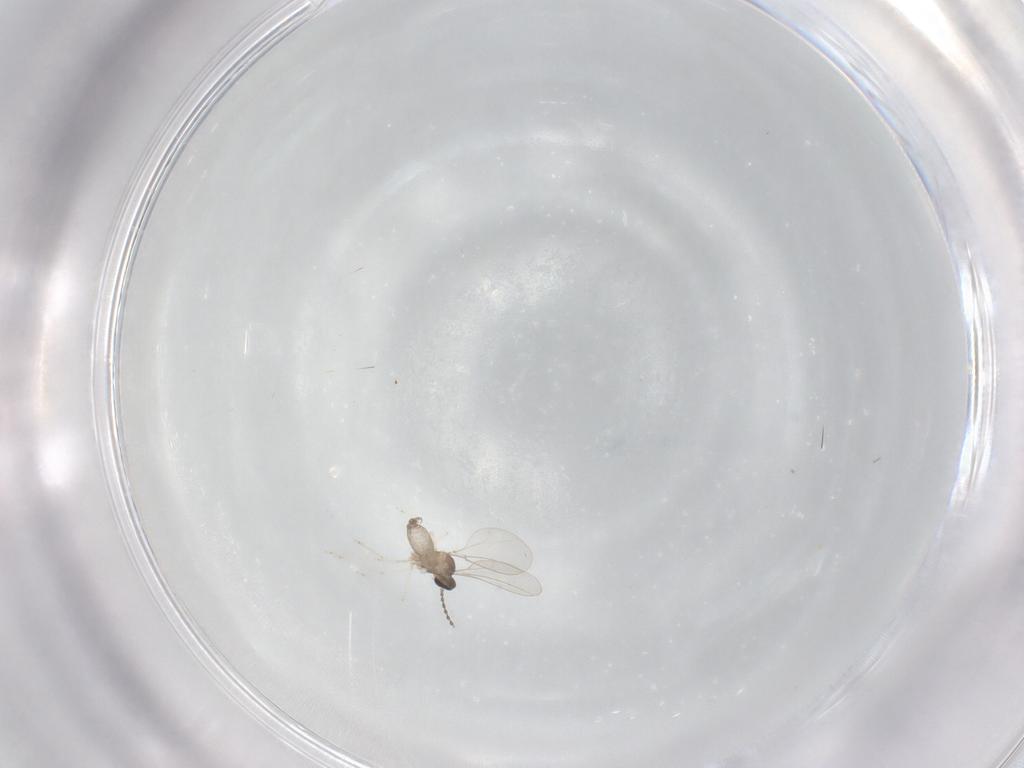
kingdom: Animalia
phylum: Arthropoda
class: Insecta
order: Diptera
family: Cecidomyiidae
